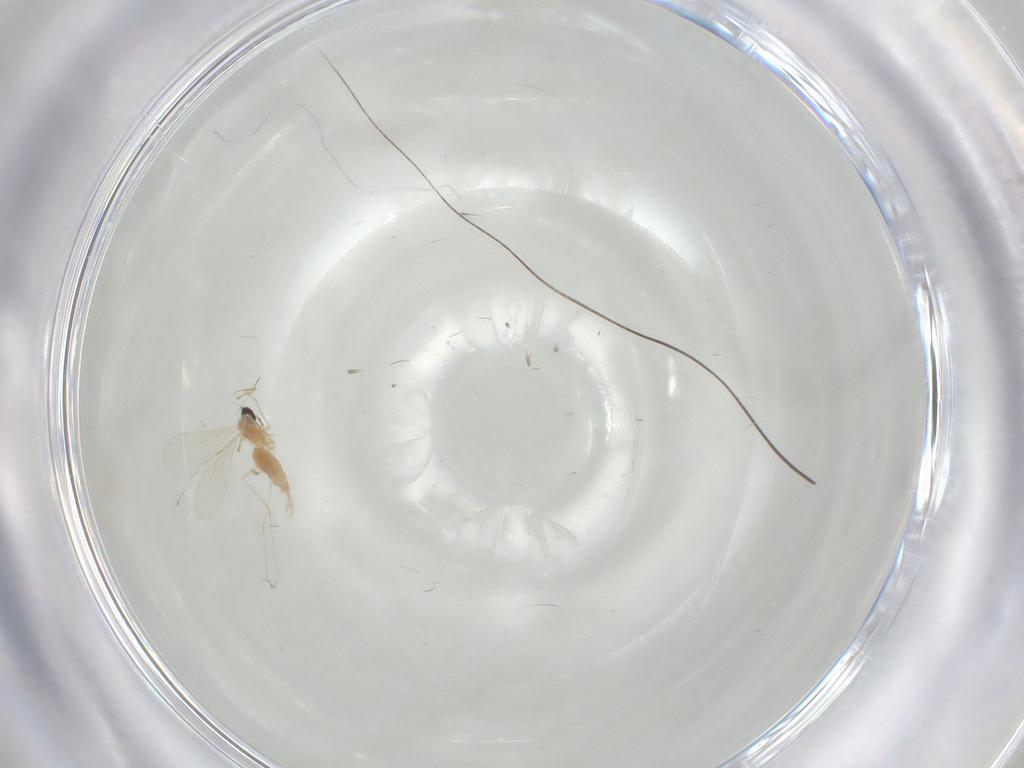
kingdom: Animalia
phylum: Arthropoda
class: Insecta
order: Diptera
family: Cecidomyiidae
